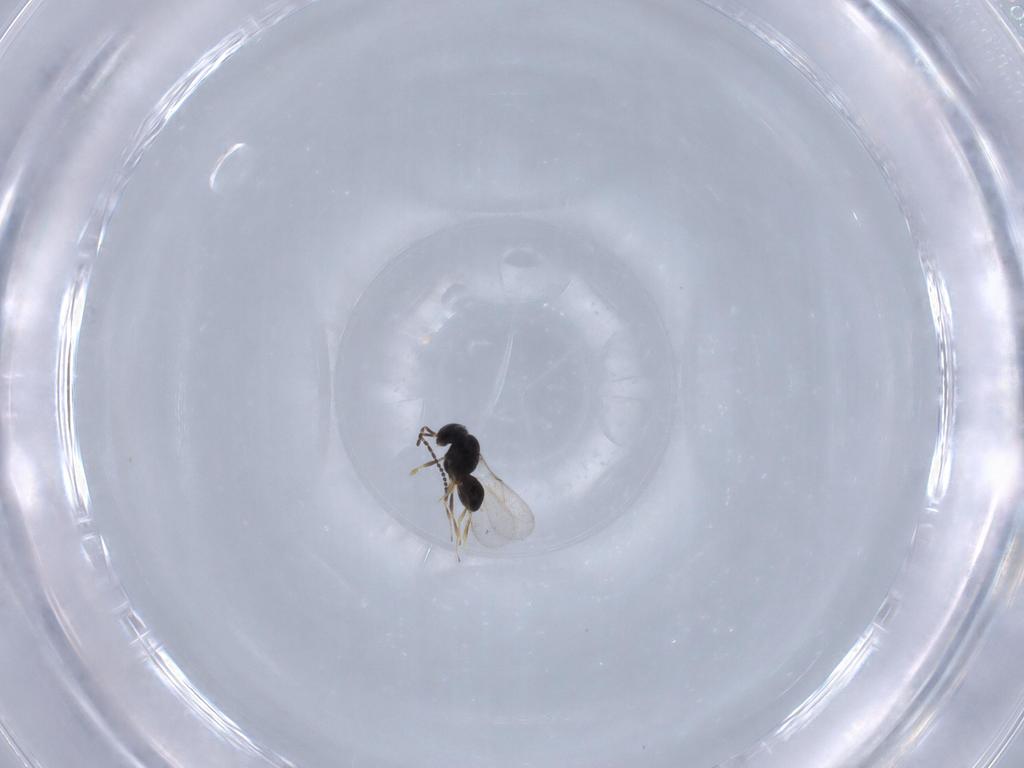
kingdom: Animalia
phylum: Arthropoda
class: Insecta
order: Hymenoptera
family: Scelionidae
